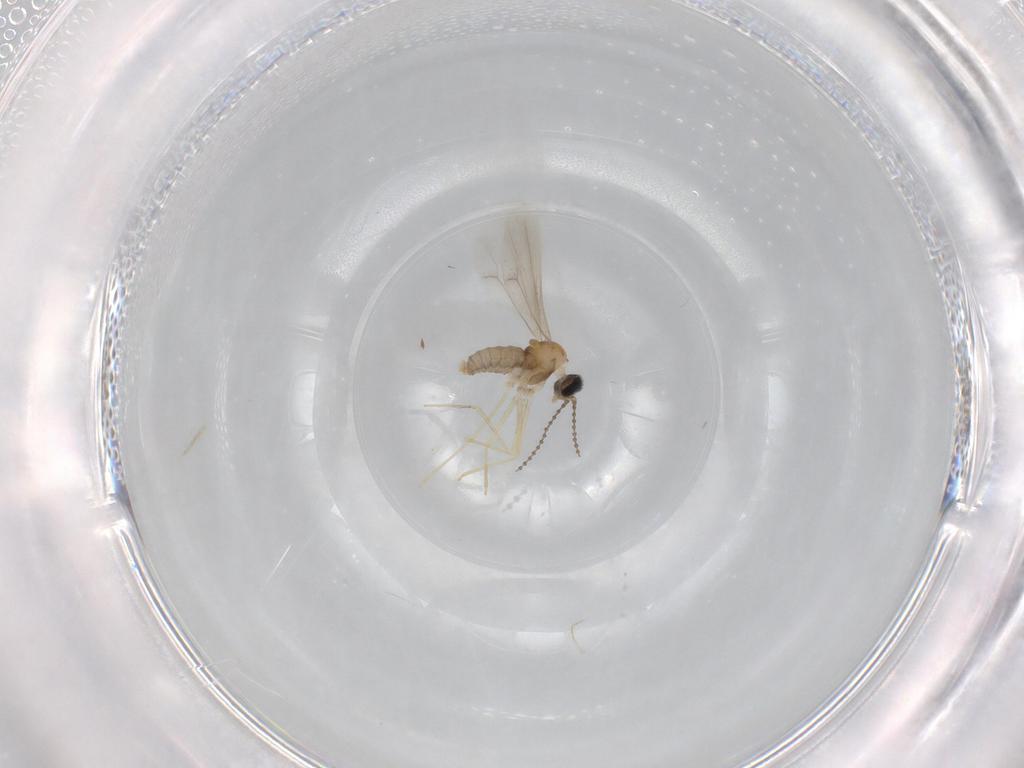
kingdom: Animalia
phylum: Arthropoda
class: Insecta
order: Diptera
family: Cecidomyiidae
